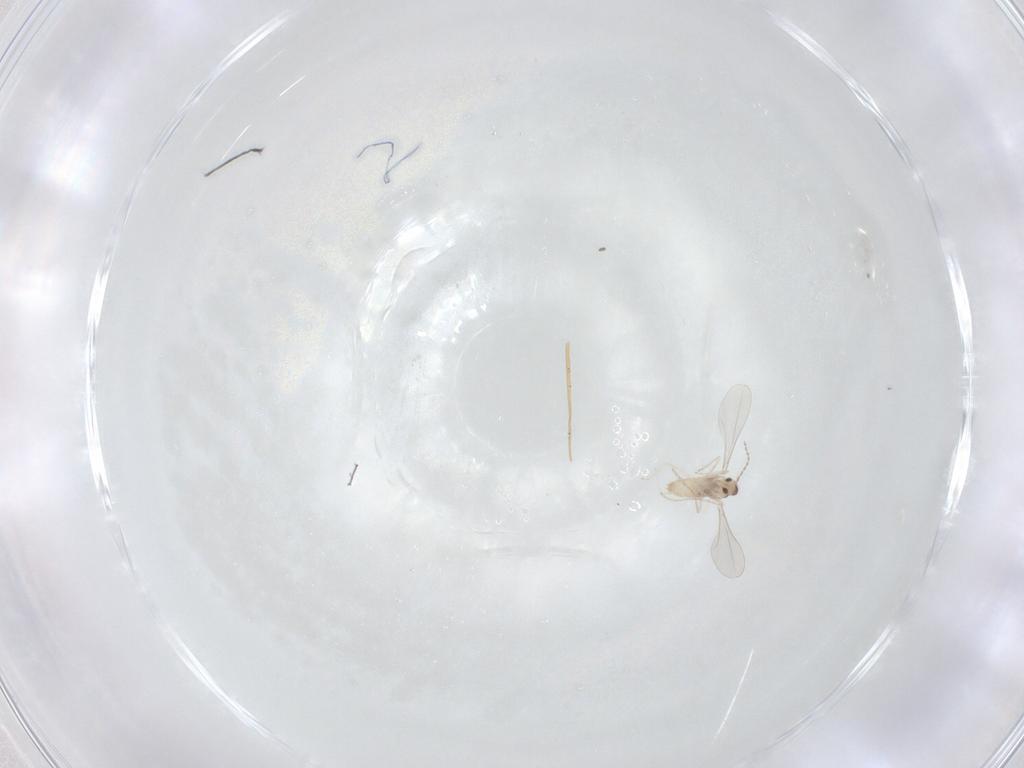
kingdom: Animalia
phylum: Arthropoda
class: Insecta
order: Diptera
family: Cecidomyiidae
